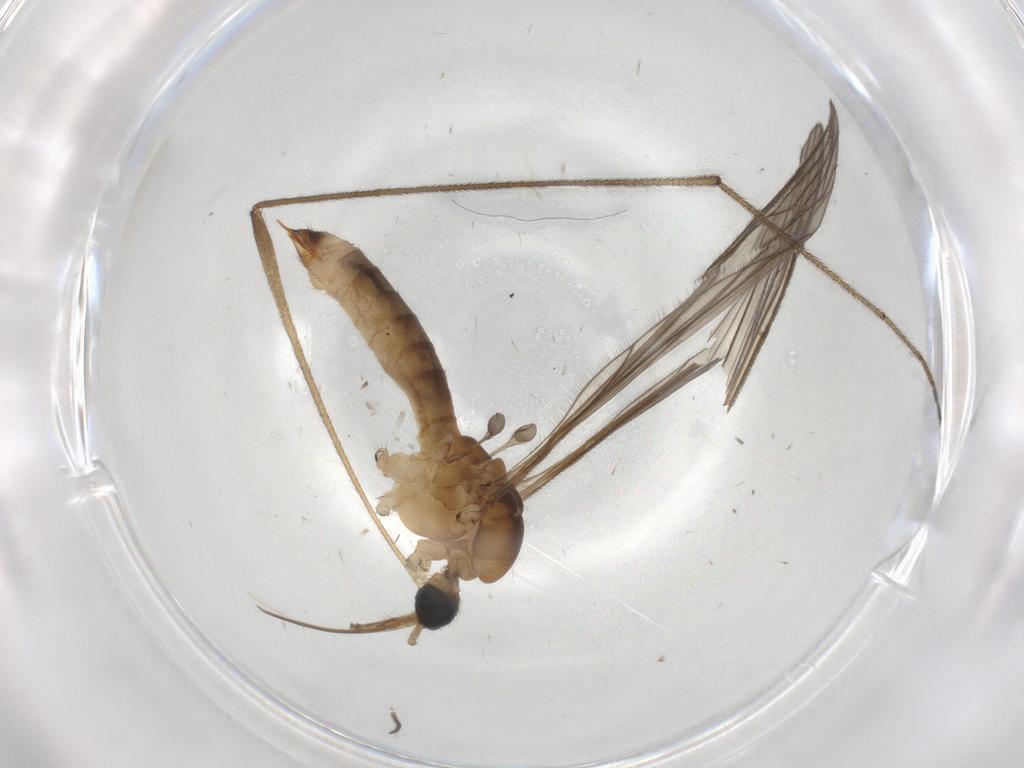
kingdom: Animalia
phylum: Arthropoda
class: Insecta
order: Diptera
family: Limoniidae
